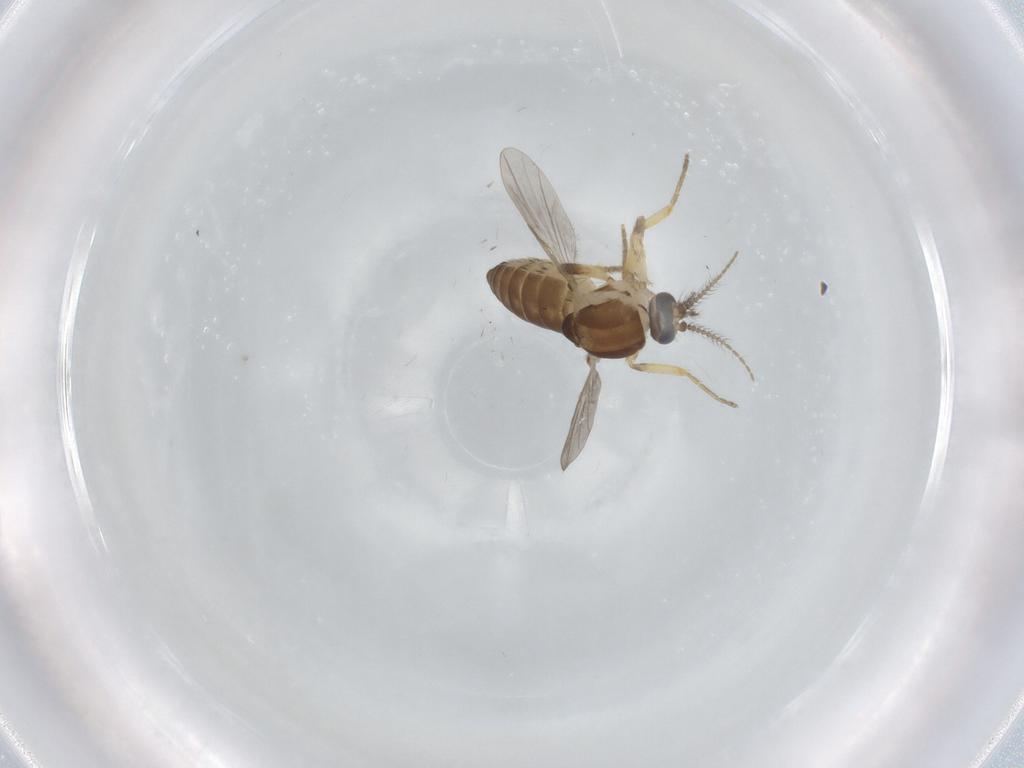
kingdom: Animalia
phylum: Arthropoda
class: Insecta
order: Diptera
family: Ceratopogonidae
